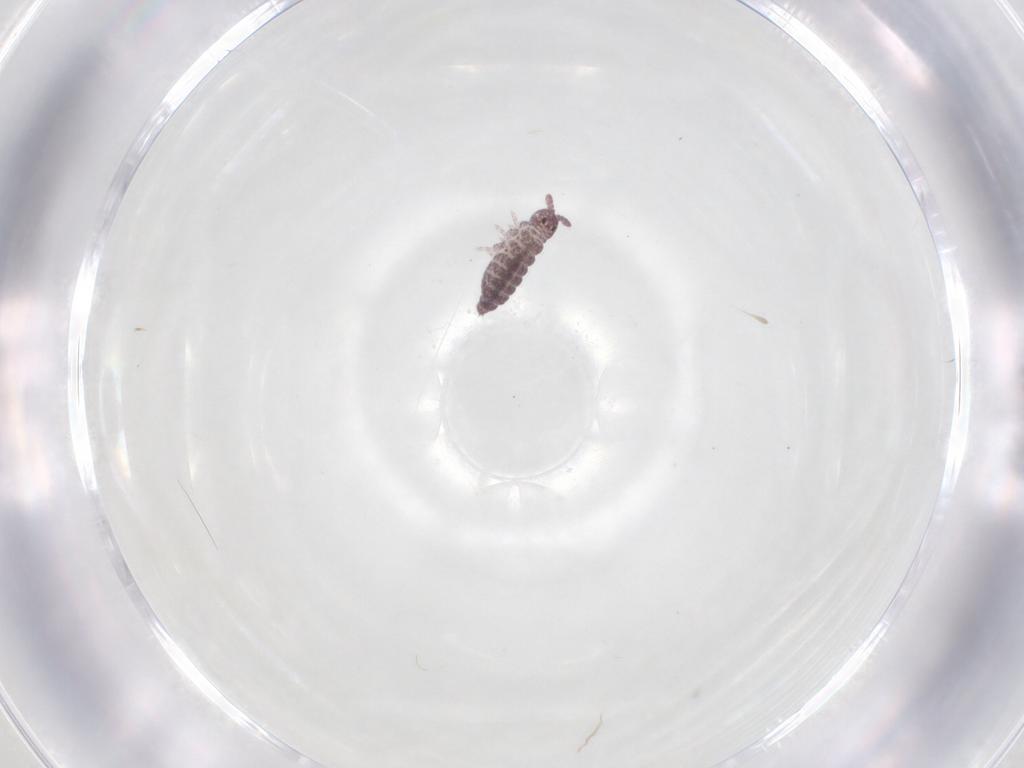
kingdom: Animalia
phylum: Arthropoda
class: Collembola
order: Poduromorpha
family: Hypogastruridae
